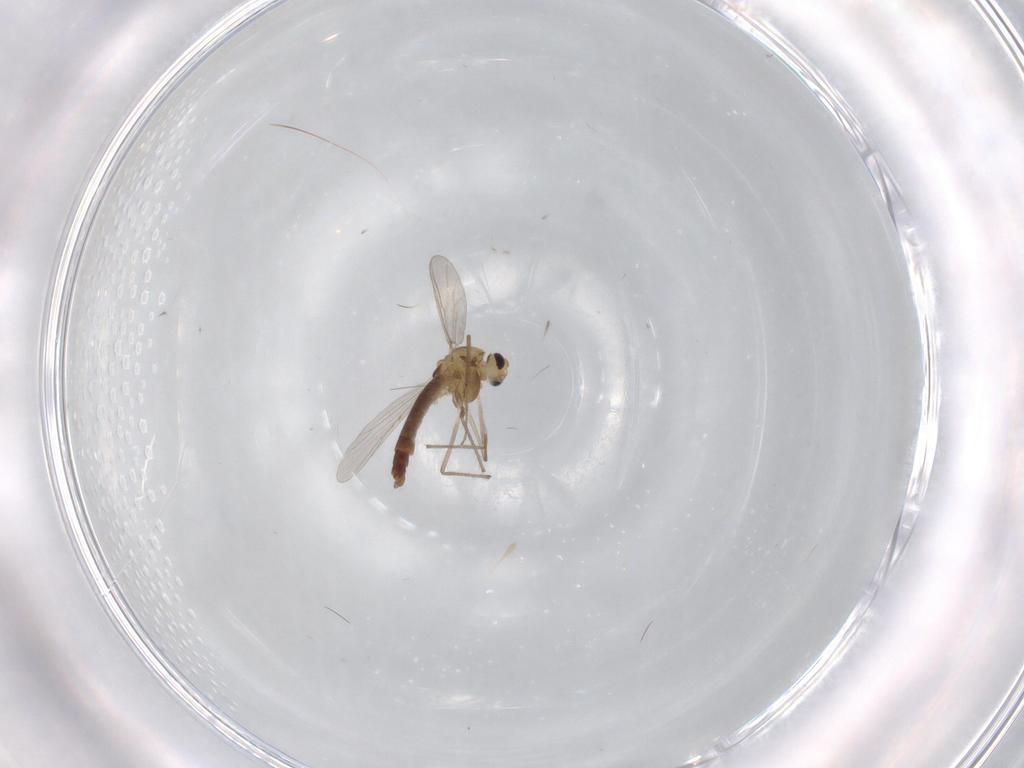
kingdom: Animalia
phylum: Arthropoda
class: Insecta
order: Diptera
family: Chironomidae
